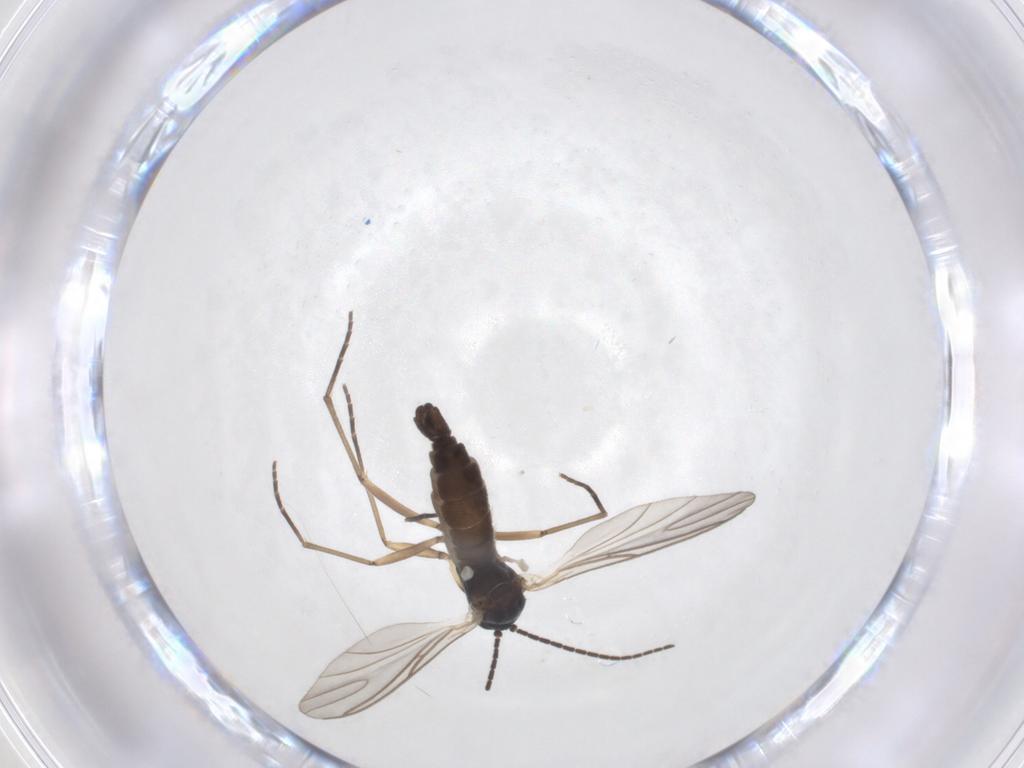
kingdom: Animalia
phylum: Arthropoda
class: Insecta
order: Diptera
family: Sciaridae
